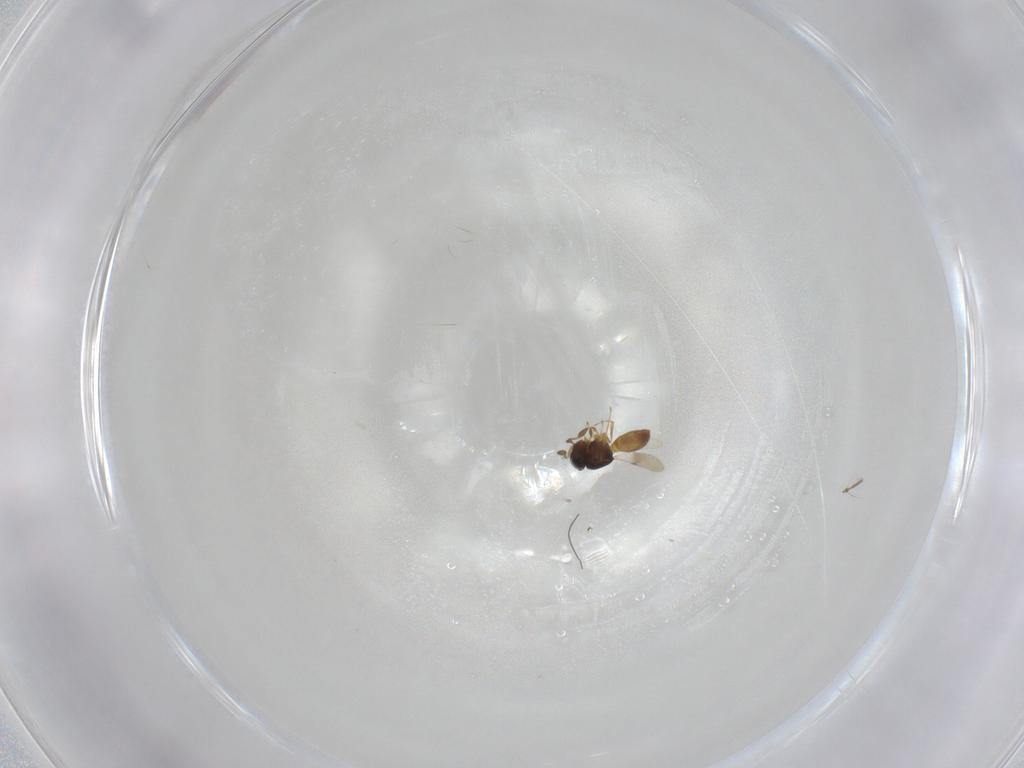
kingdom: Animalia
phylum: Arthropoda
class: Insecta
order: Hymenoptera
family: Scelionidae
